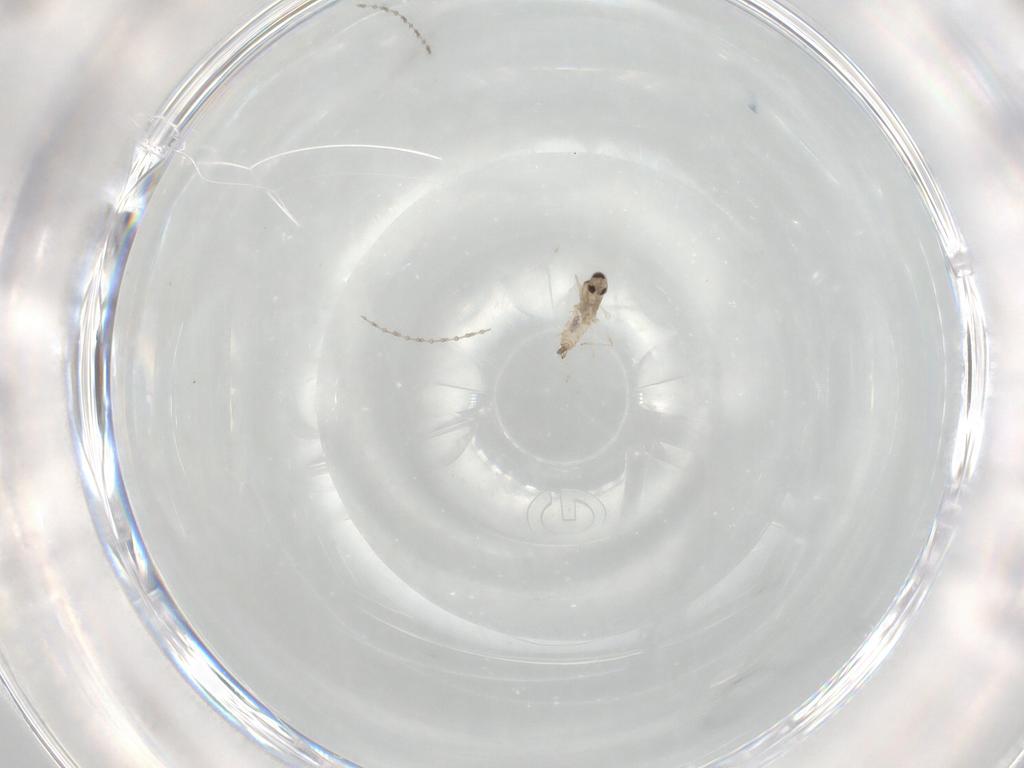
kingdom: Animalia
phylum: Arthropoda
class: Insecta
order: Diptera
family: Cecidomyiidae
